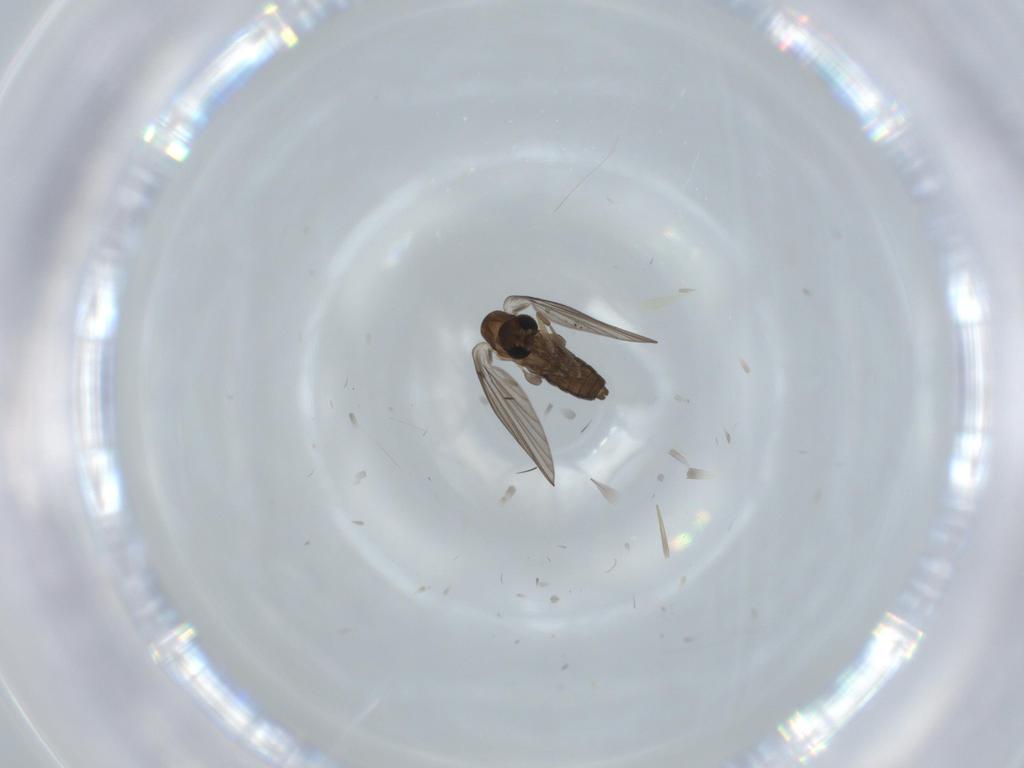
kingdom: Animalia
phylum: Arthropoda
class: Insecta
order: Diptera
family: Sciaridae
